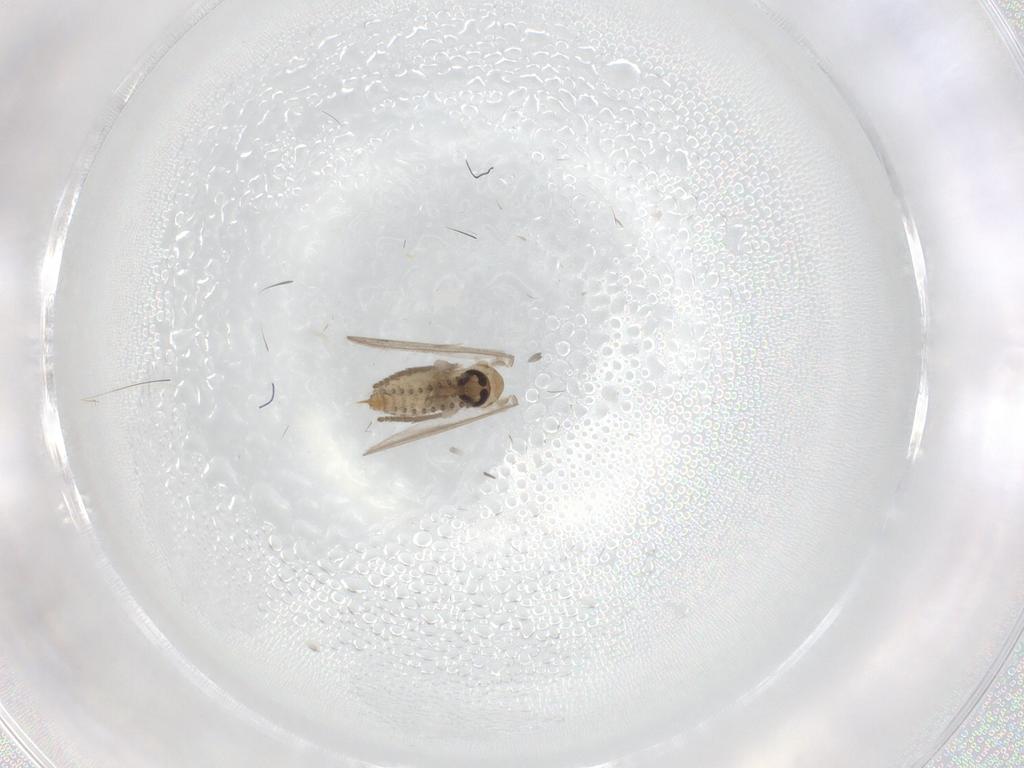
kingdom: Animalia
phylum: Arthropoda
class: Insecta
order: Diptera
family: Psychodidae
